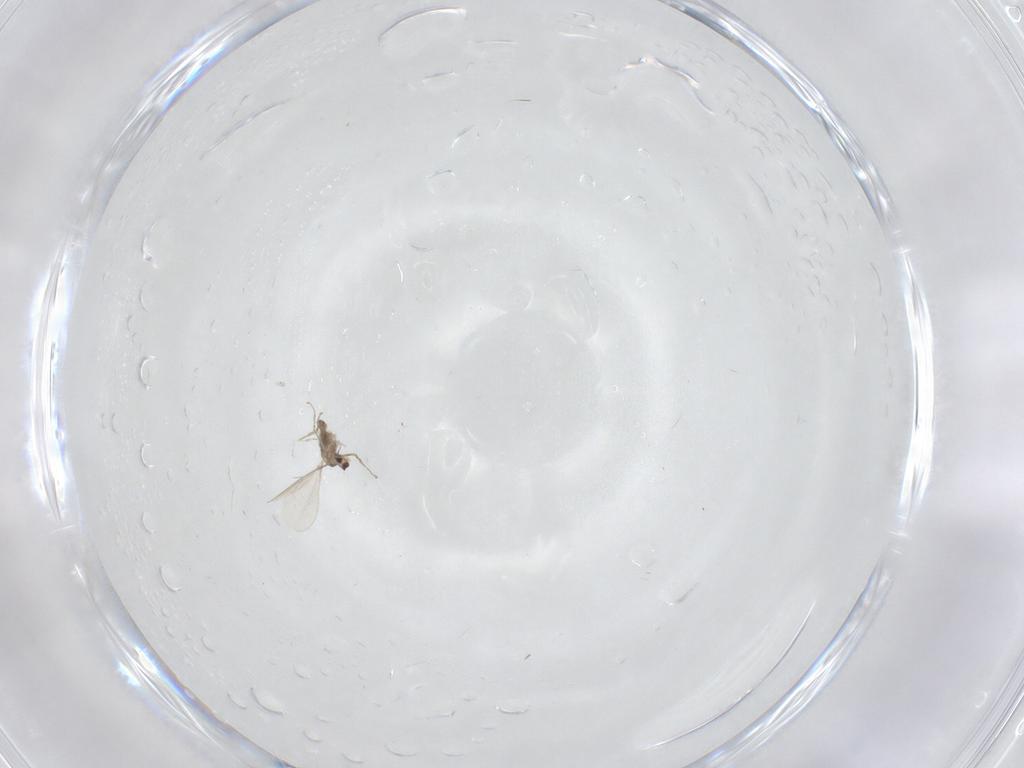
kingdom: Animalia
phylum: Arthropoda
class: Insecta
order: Diptera
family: Cecidomyiidae
